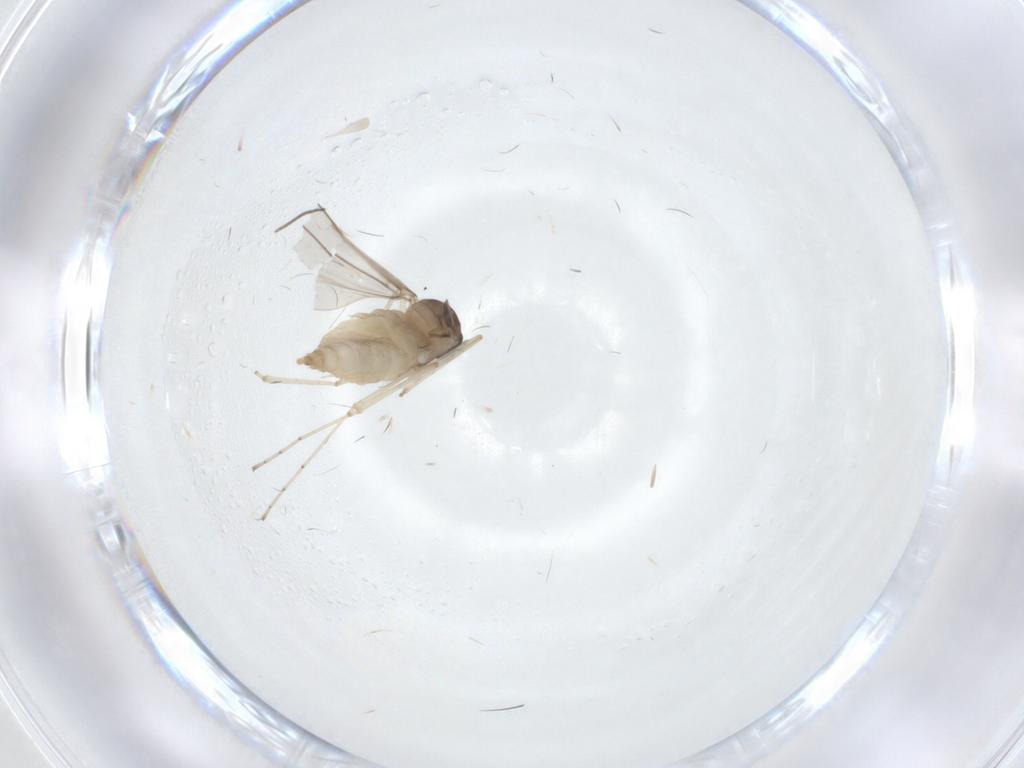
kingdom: Animalia
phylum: Arthropoda
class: Insecta
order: Diptera
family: Cecidomyiidae
